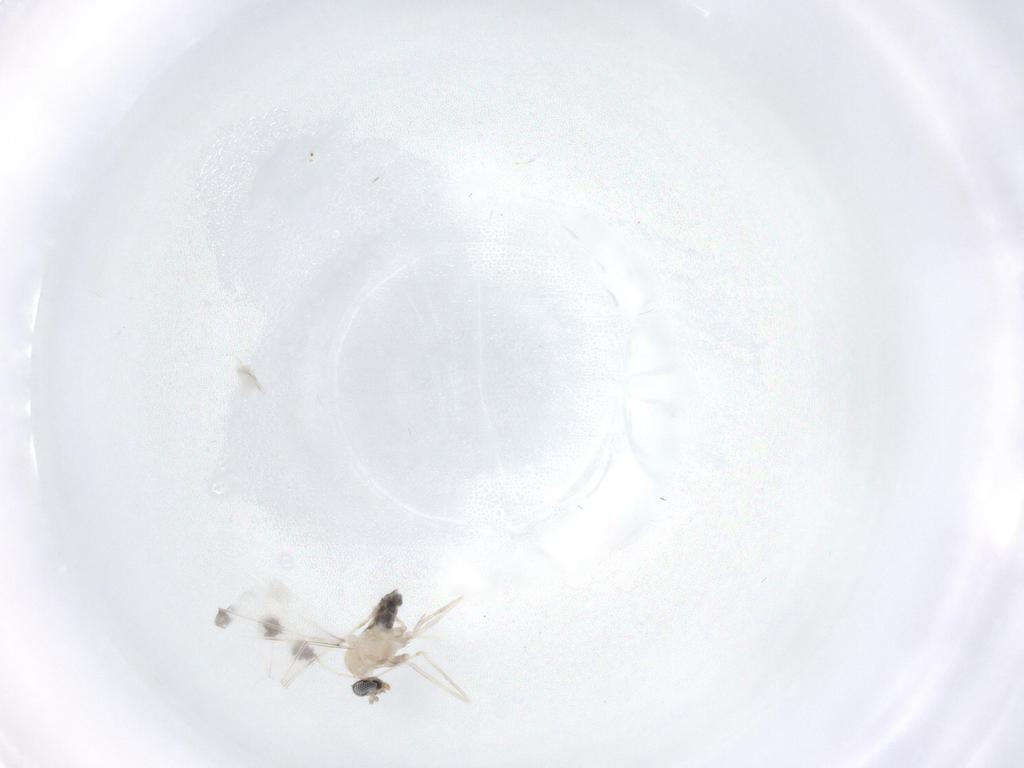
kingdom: Animalia
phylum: Arthropoda
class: Insecta
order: Diptera
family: Cecidomyiidae
